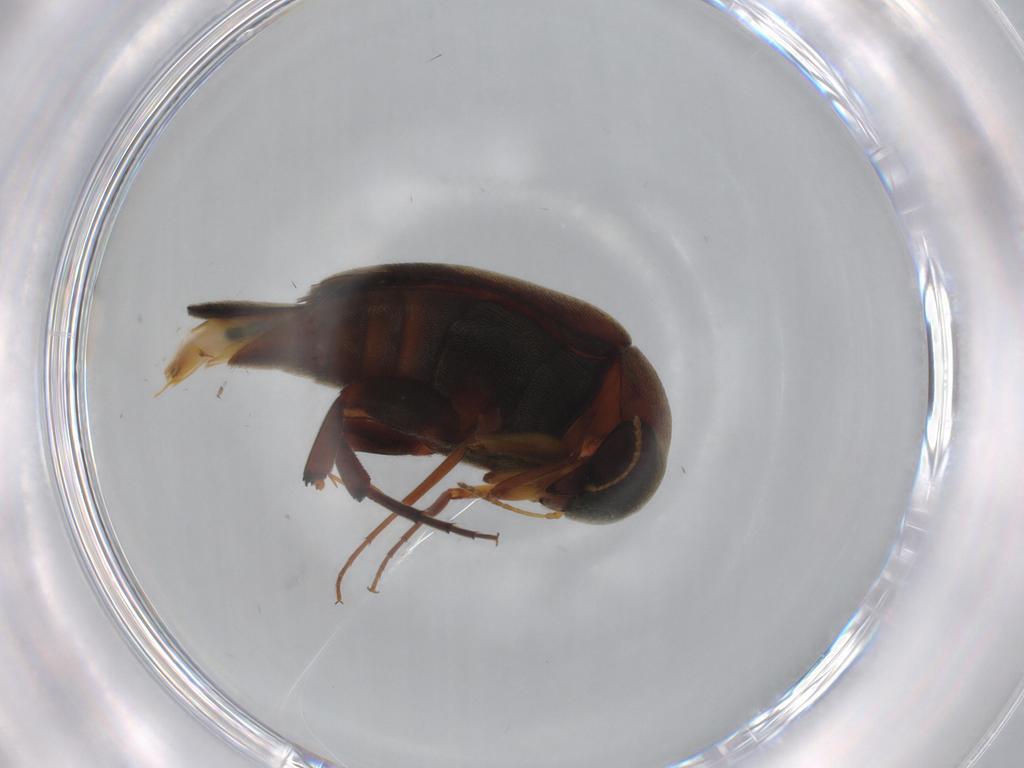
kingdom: Animalia
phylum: Arthropoda
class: Insecta
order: Coleoptera
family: Mordellidae
